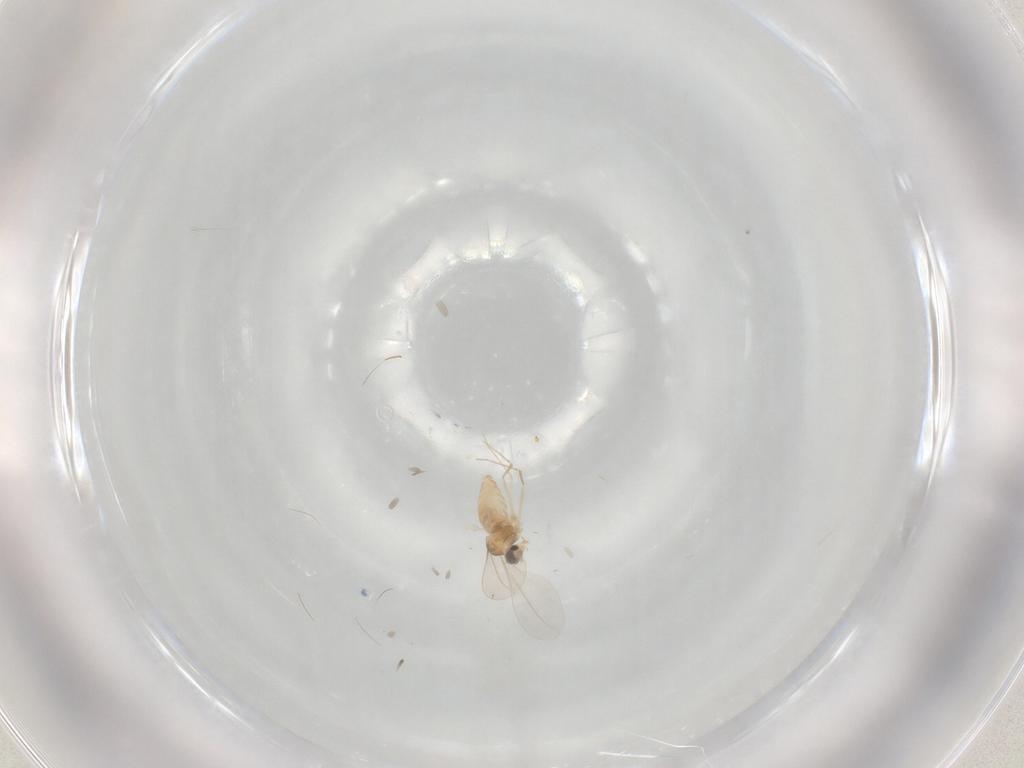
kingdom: Animalia
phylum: Arthropoda
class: Insecta
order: Diptera
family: Cecidomyiidae
